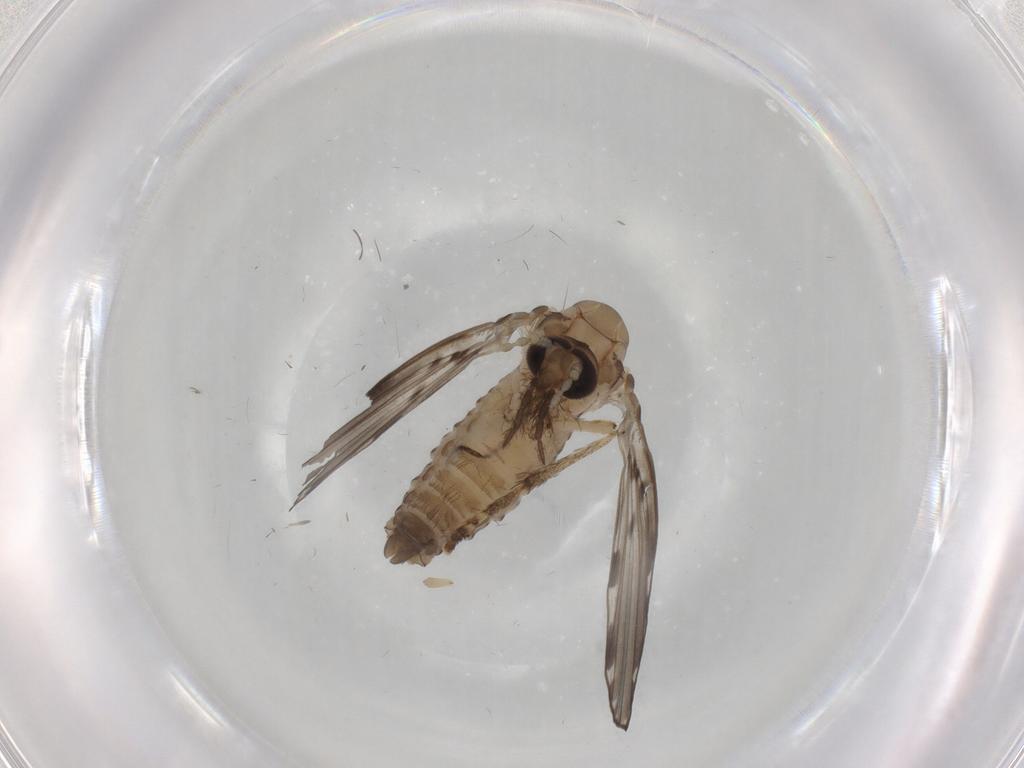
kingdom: Animalia
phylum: Arthropoda
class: Insecta
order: Diptera
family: Psychodidae
